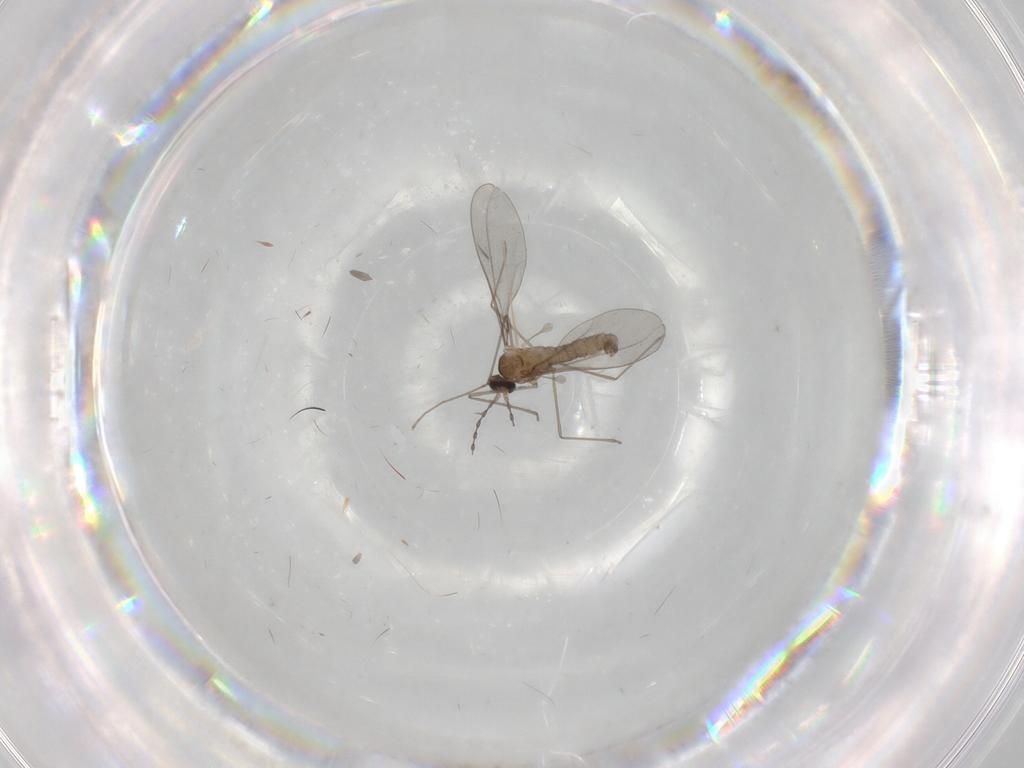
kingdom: Animalia
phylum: Arthropoda
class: Insecta
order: Diptera
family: Cecidomyiidae
